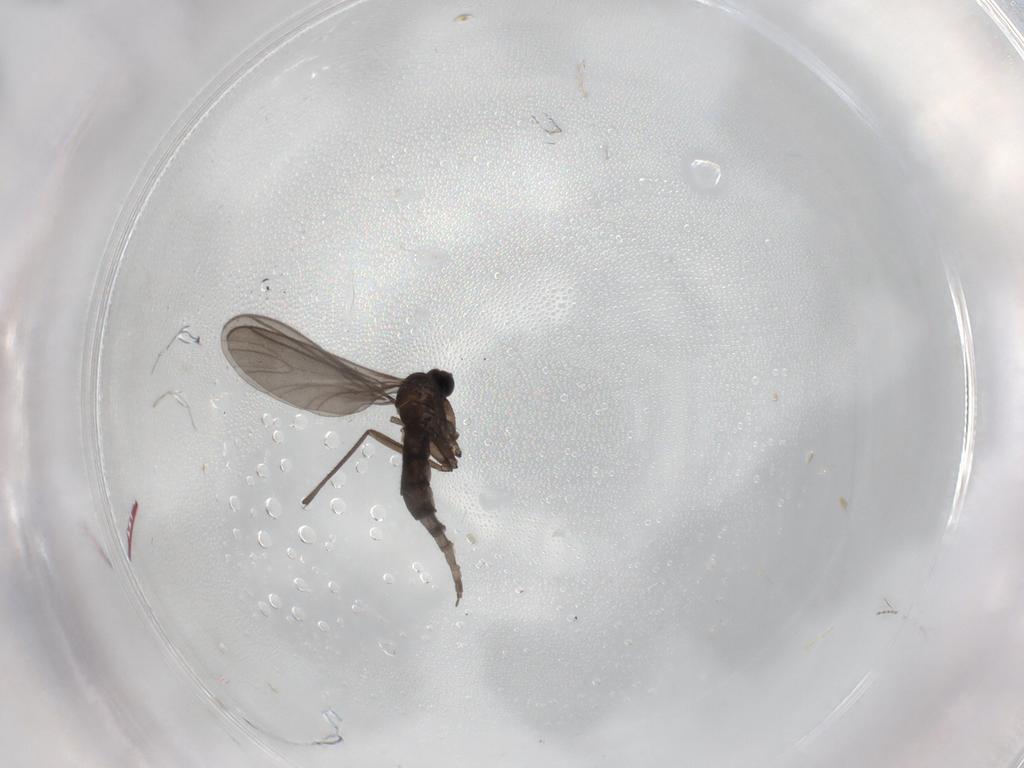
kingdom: Animalia
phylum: Arthropoda
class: Insecta
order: Diptera
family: Sciaridae
